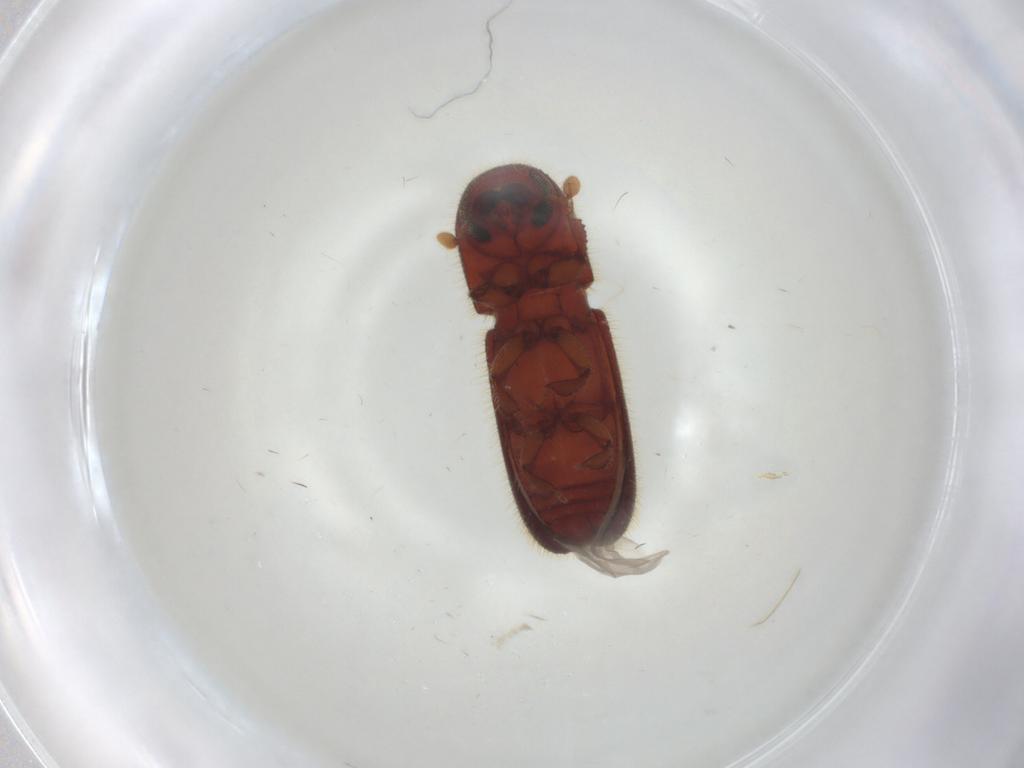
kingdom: Animalia
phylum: Arthropoda
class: Insecta
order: Coleoptera
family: Scraptiidae
